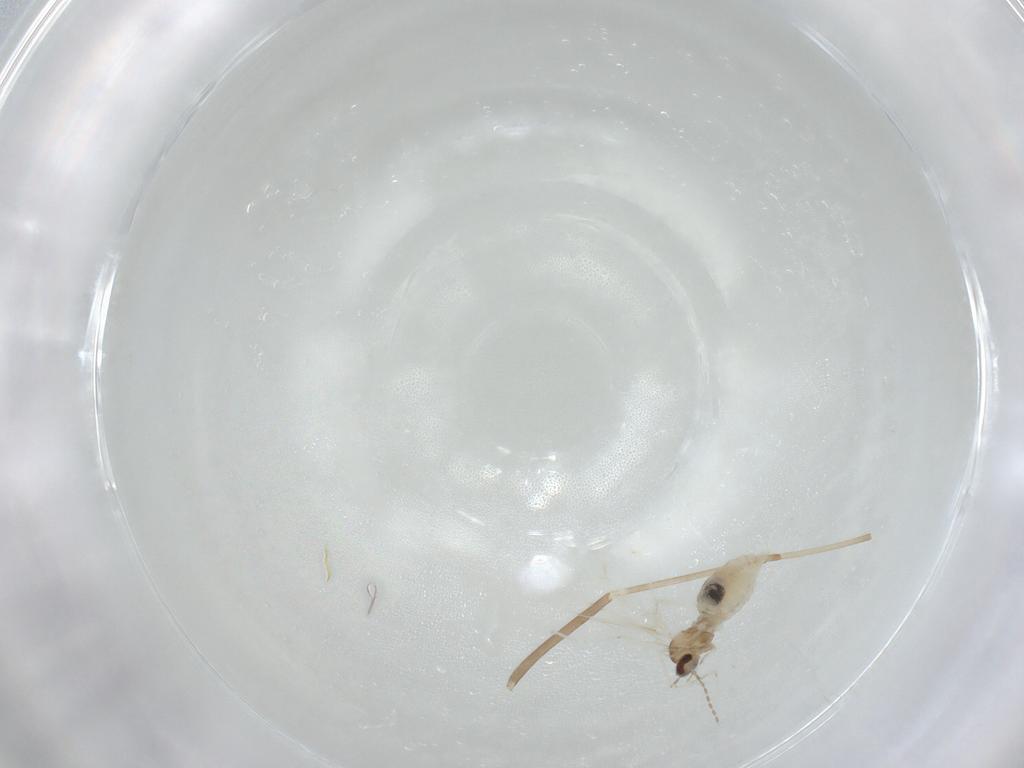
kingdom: Animalia
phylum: Arthropoda
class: Insecta
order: Diptera
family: Cecidomyiidae
